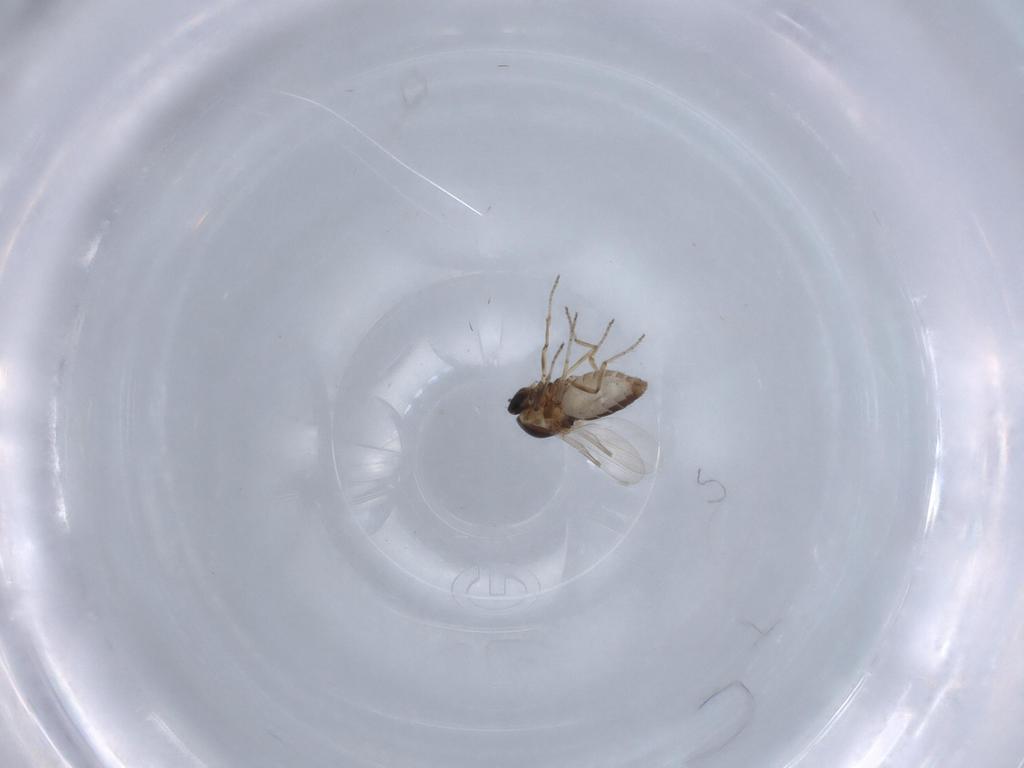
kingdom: Animalia
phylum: Arthropoda
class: Insecta
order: Diptera
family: Ceratopogonidae
